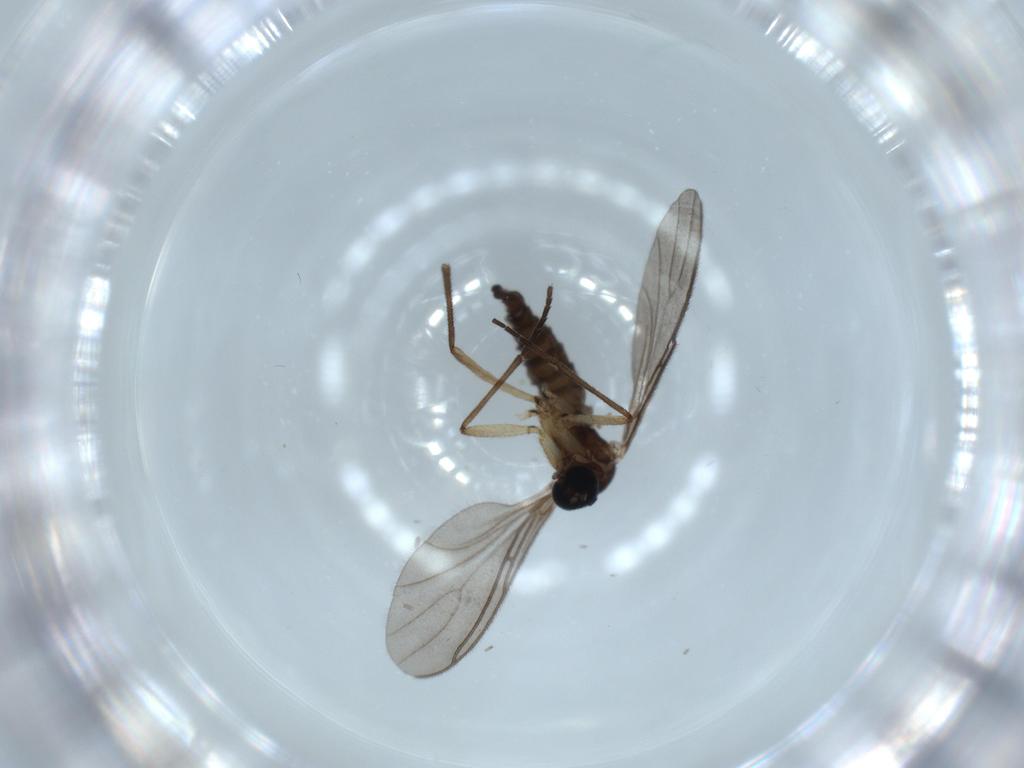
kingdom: Animalia
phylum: Arthropoda
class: Insecta
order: Diptera
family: Sciaridae
